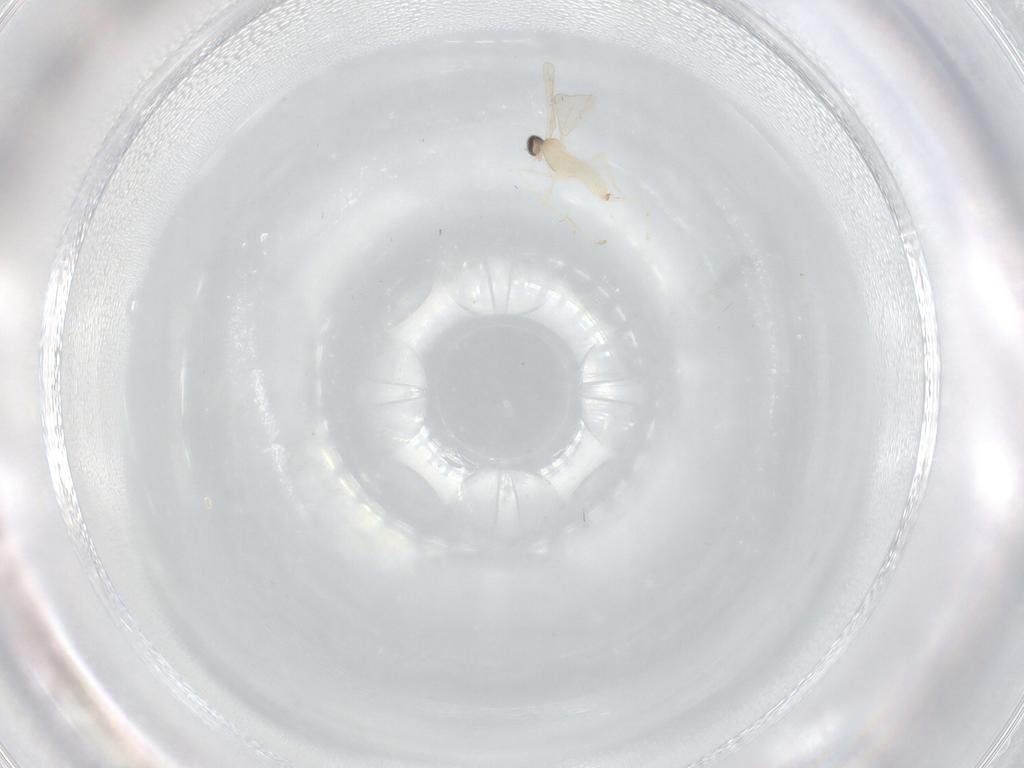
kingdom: Animalia
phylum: Arthropoda
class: Insecta
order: Diptera
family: Cecidomyiidae
